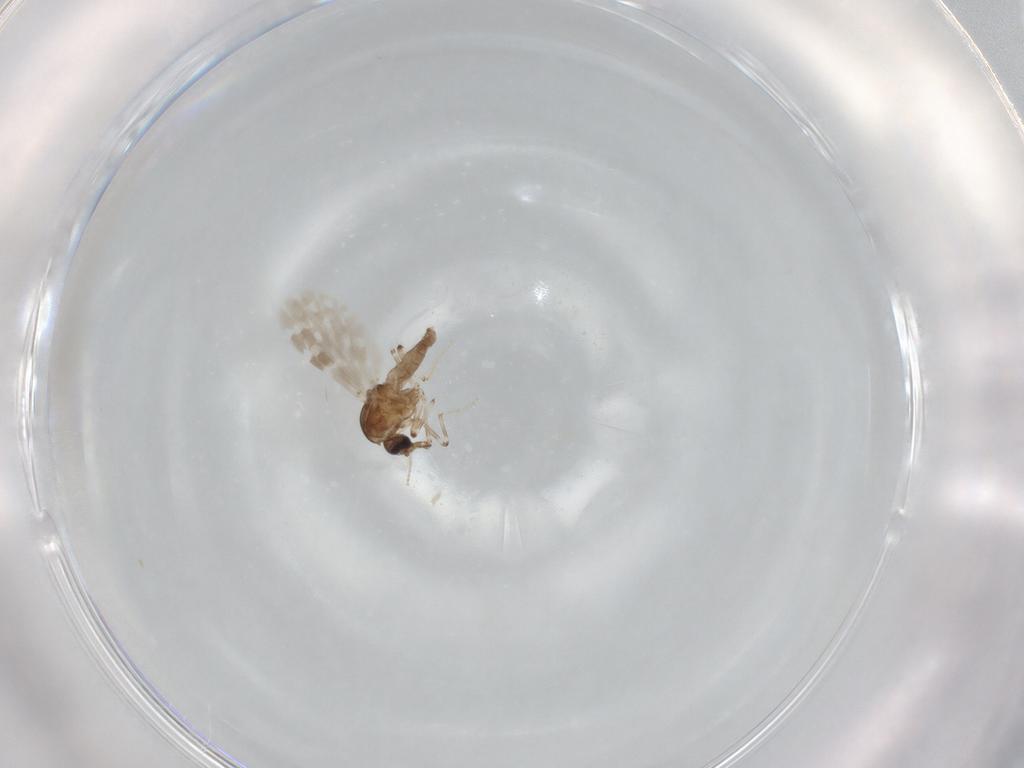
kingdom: Animalia
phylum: Arthropoda
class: Insecta
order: Diptera
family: Ceratopogonidae
